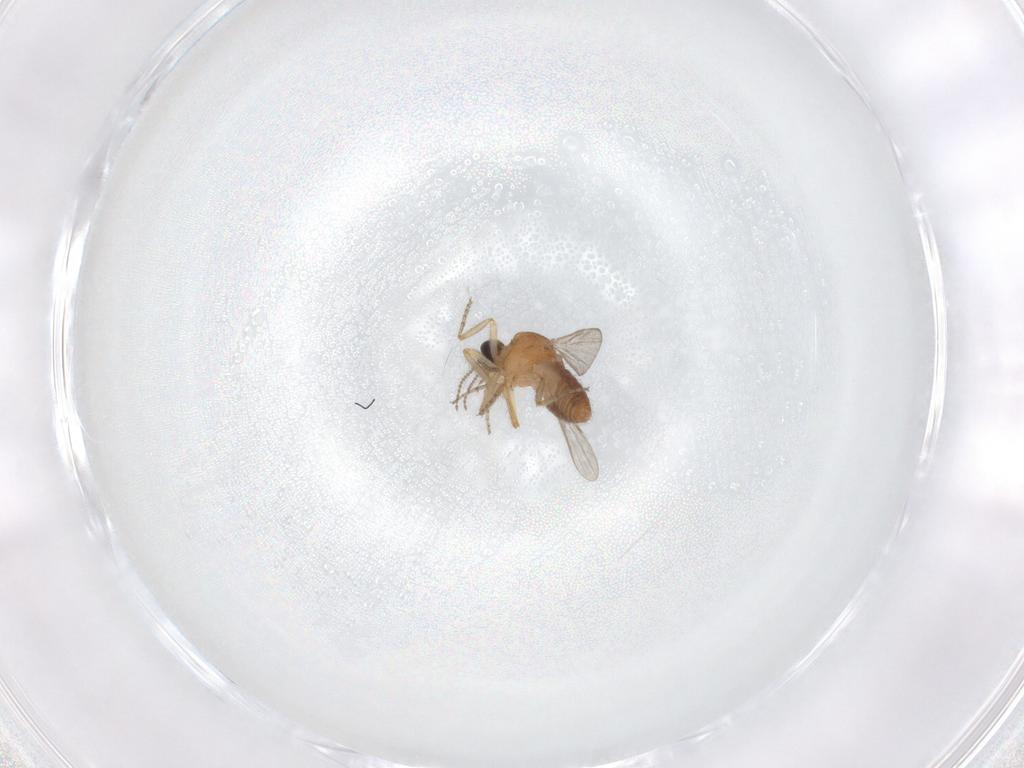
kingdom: Animalia
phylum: Arthropoda
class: Insecta
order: Diptera
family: Ceratopogonidae
